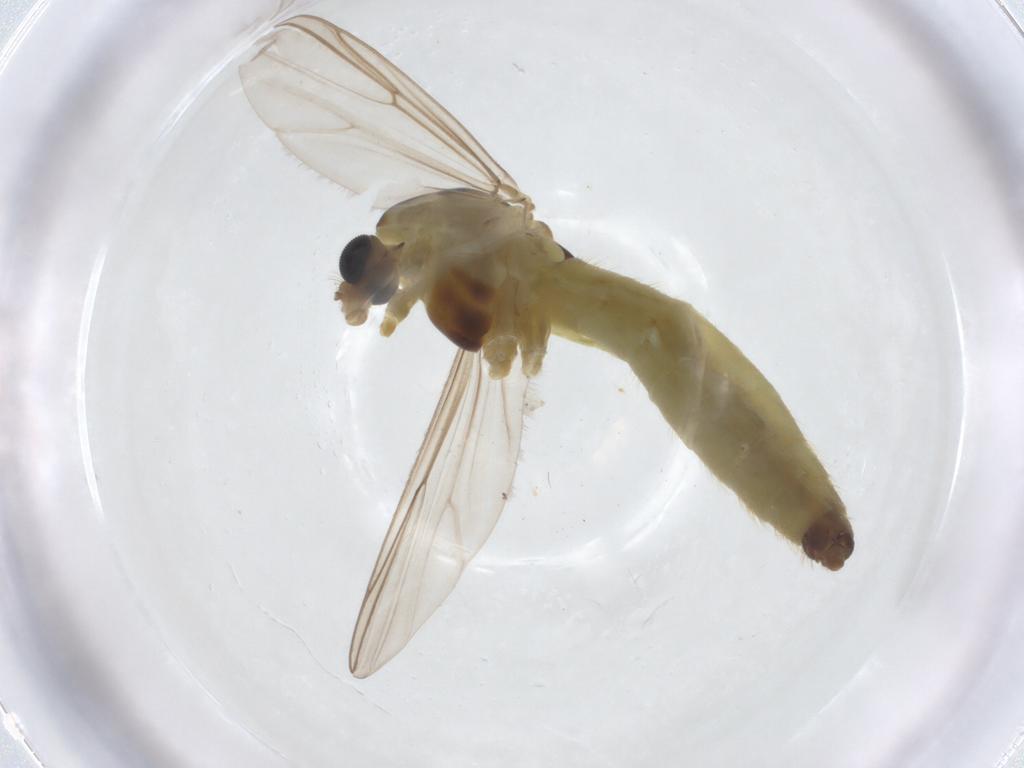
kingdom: Animalia
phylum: Arthropoda
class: Insecta
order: Diptera
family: Chironomidae
